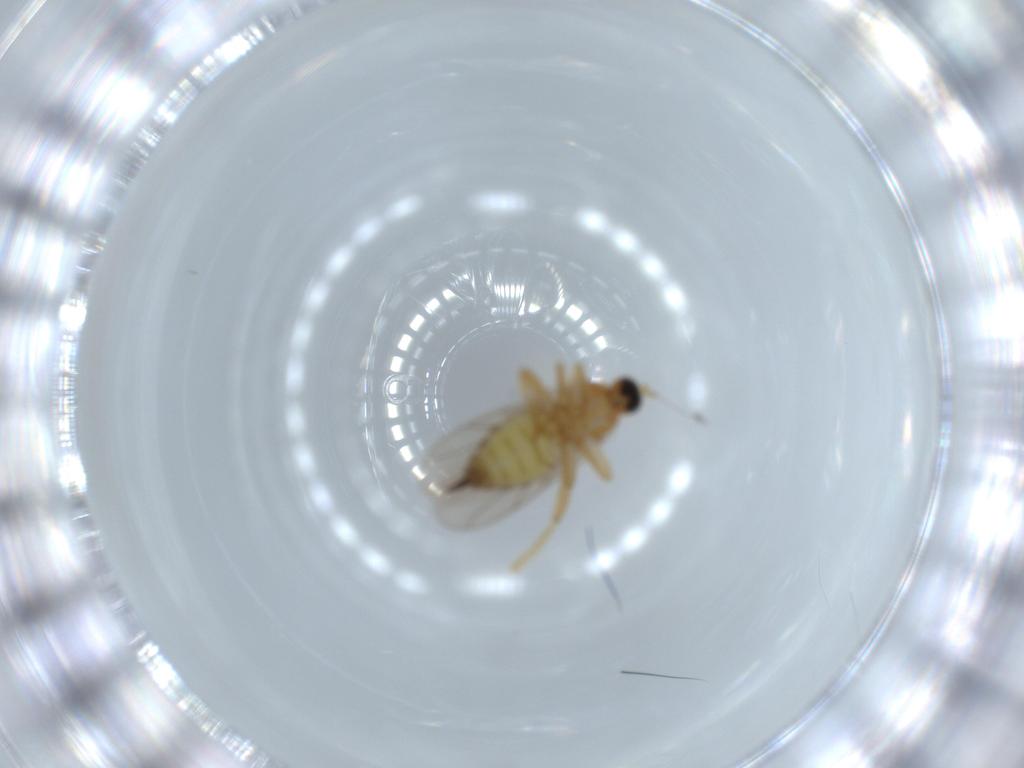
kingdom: Animalia
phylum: Arthropoda
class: Insecta
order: Diptera
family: Hybotidae
